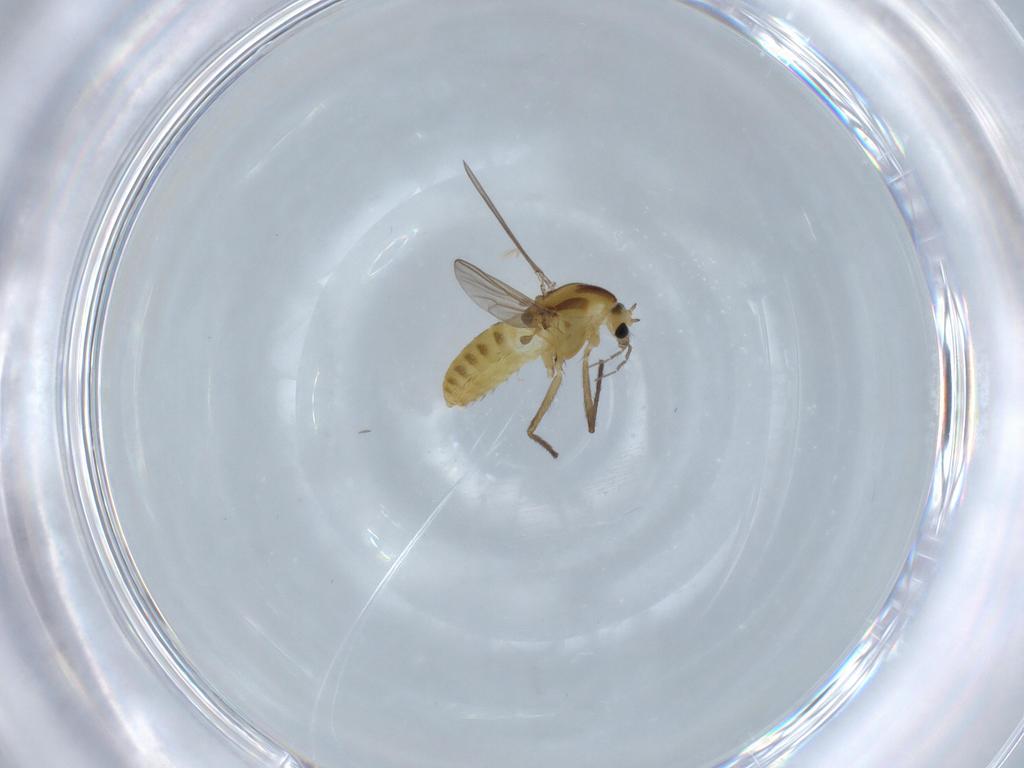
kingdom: Animalia
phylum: Arthropoda
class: Insecta
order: Diptera
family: Chironomidae
